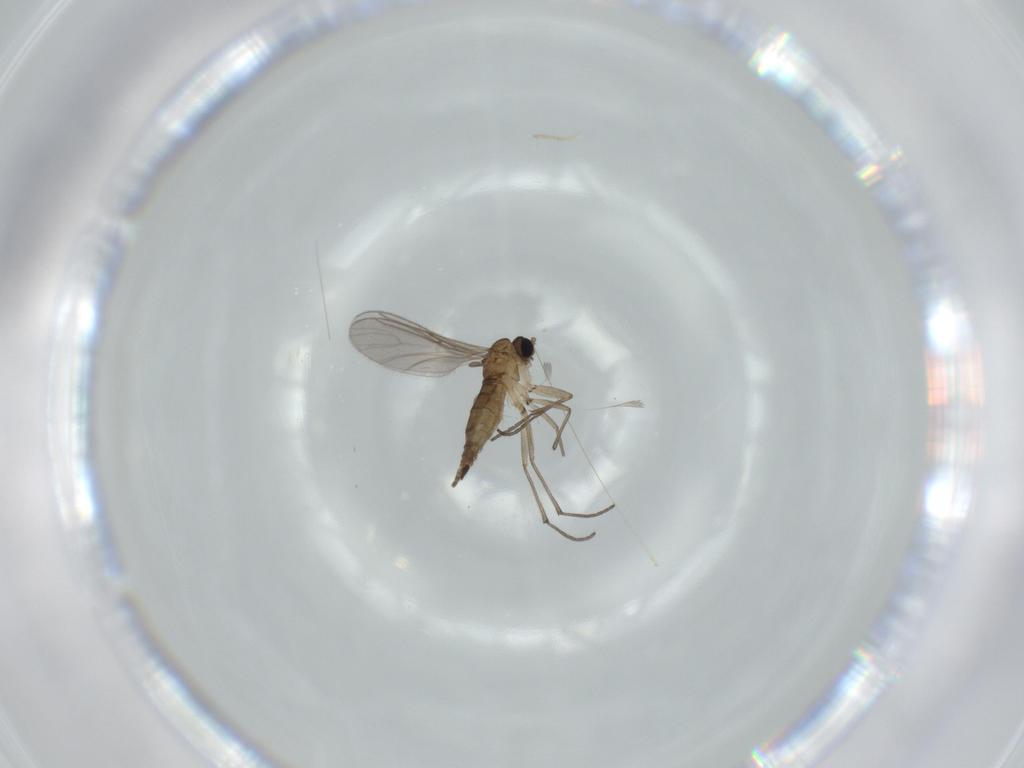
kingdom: Animalia
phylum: Arthropoda
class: Insecta
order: Diptera
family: Sciaridae
